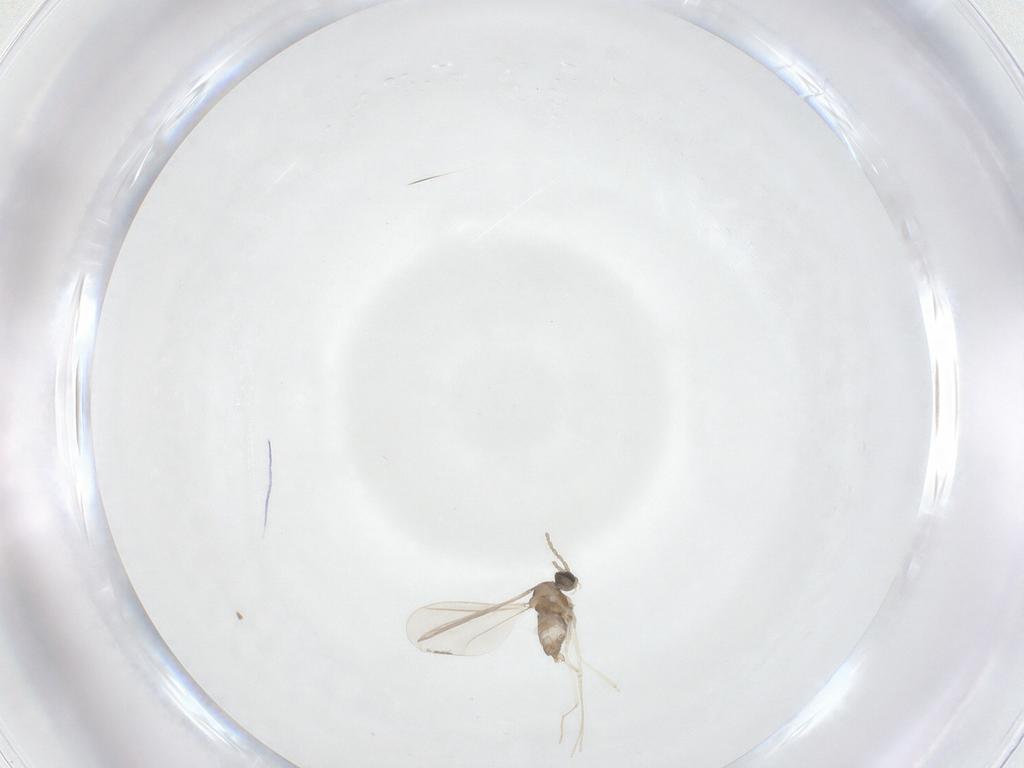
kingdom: Animalia
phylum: Arthropoda
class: Insecta
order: Diptera
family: Cecidomyiidae
